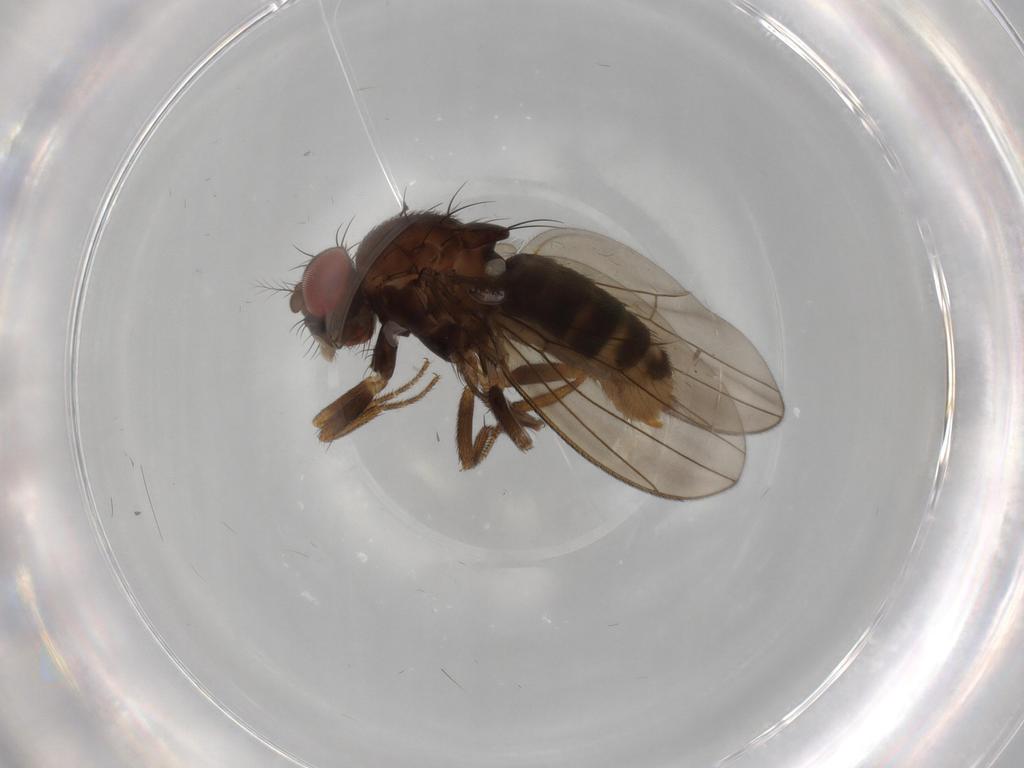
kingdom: Animalia
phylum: Arthropoda
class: Insecta
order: Diptera
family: Drosophilidae
